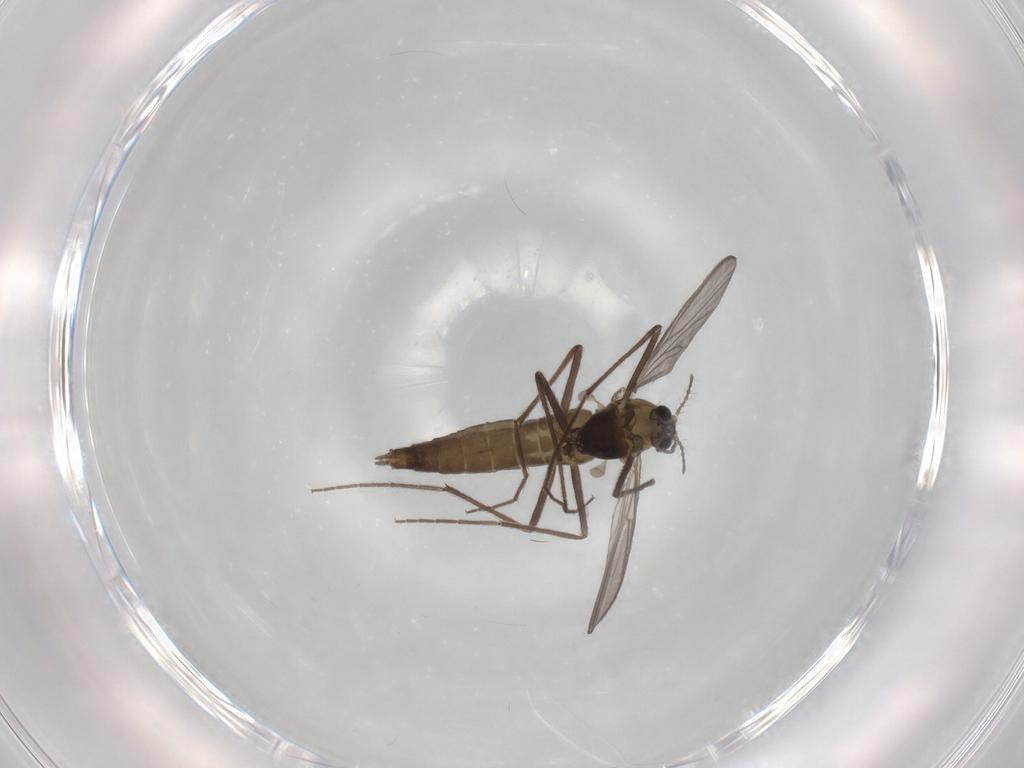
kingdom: Animalia
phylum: Arthropoda
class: Insecta
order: Diptera
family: Chironomidae
